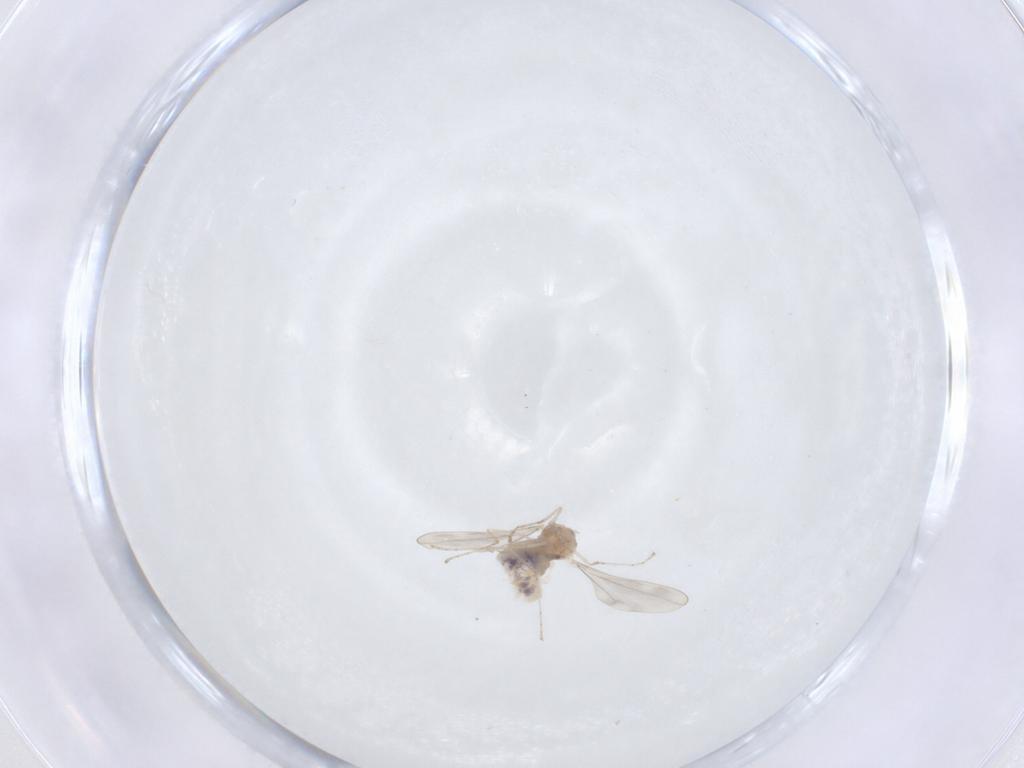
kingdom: Animalia
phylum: Arthropoda
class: Insecta
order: Diptera
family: Cecidomyiidae
